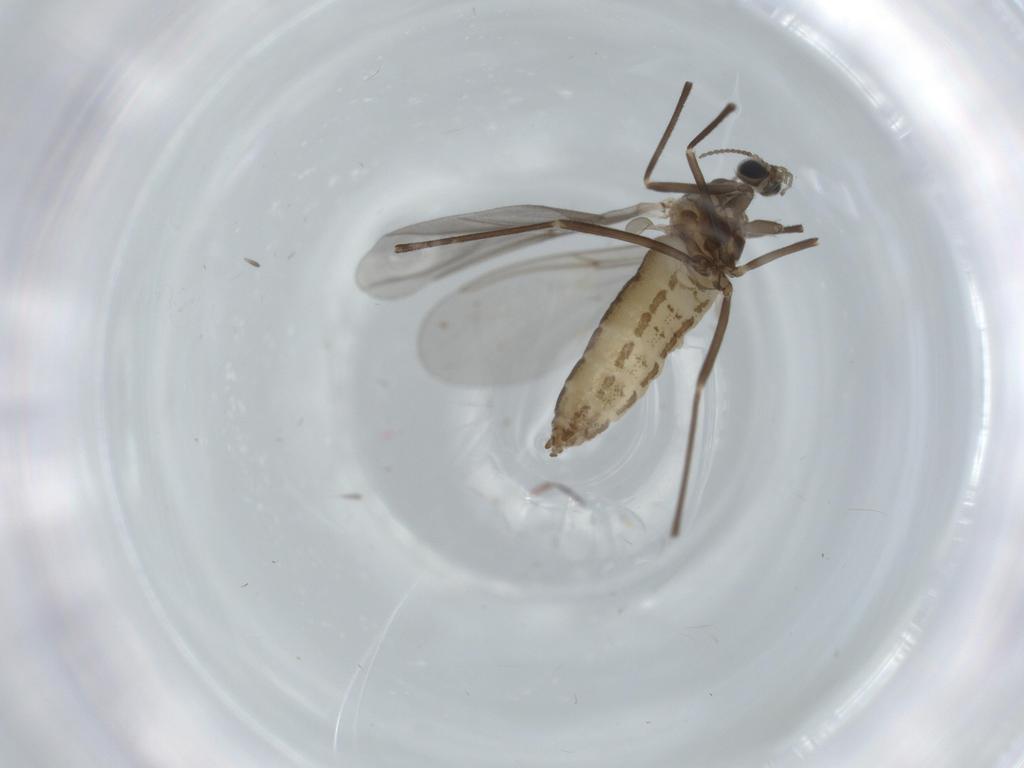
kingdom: Animalia
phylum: Arthropoda
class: Insecta
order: Diptera
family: Cecidomyiidae
